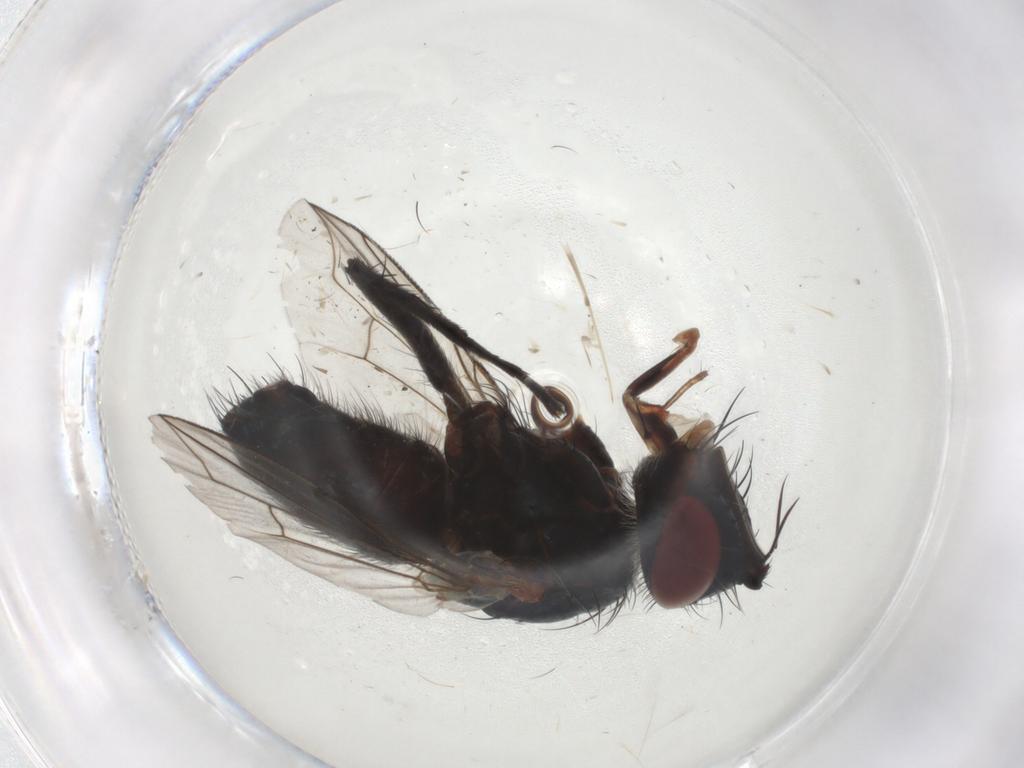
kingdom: Animalia
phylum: Arthropoda
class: Insecta
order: Diptera
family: Tachinidae
